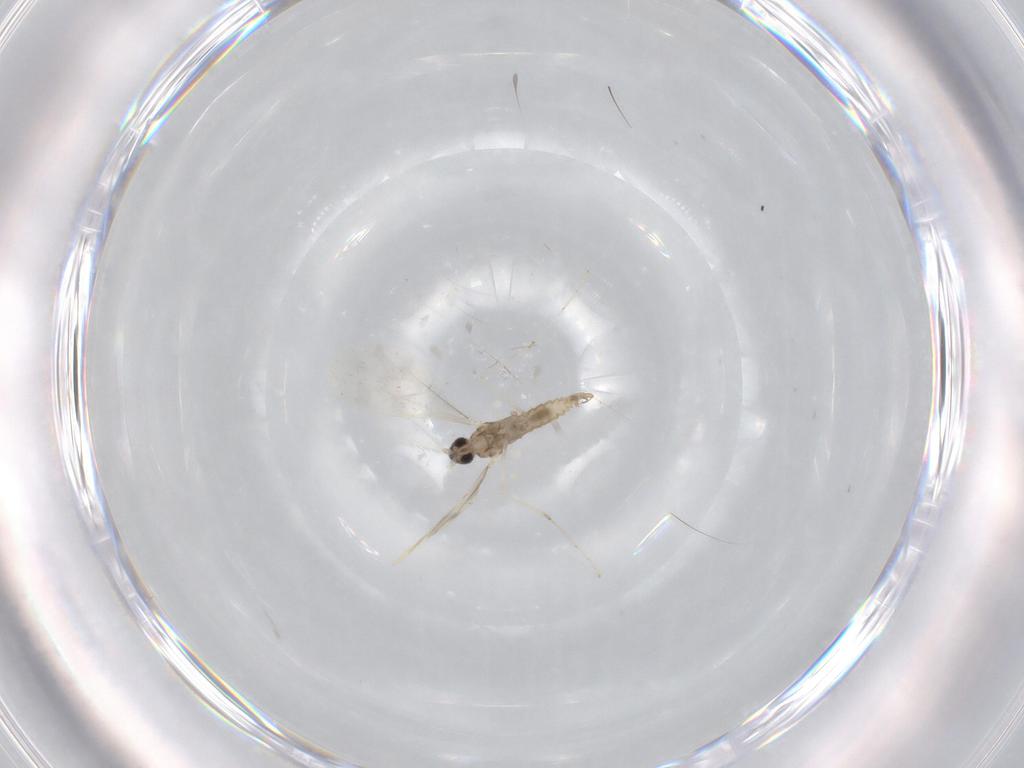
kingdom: Animalia
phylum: Arthropoda
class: Insecta
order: Diptera
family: Cecidomyiidae
